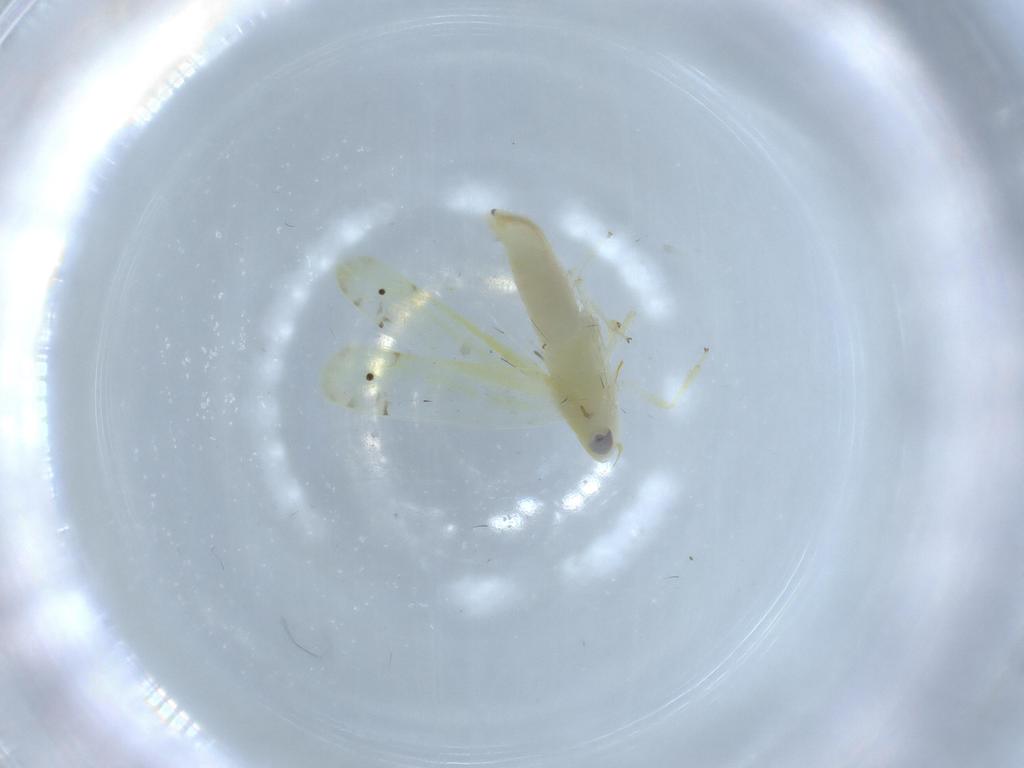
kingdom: Animalia
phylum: Arthropoda
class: Insecta
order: Hemiptera
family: Cicadellidae
